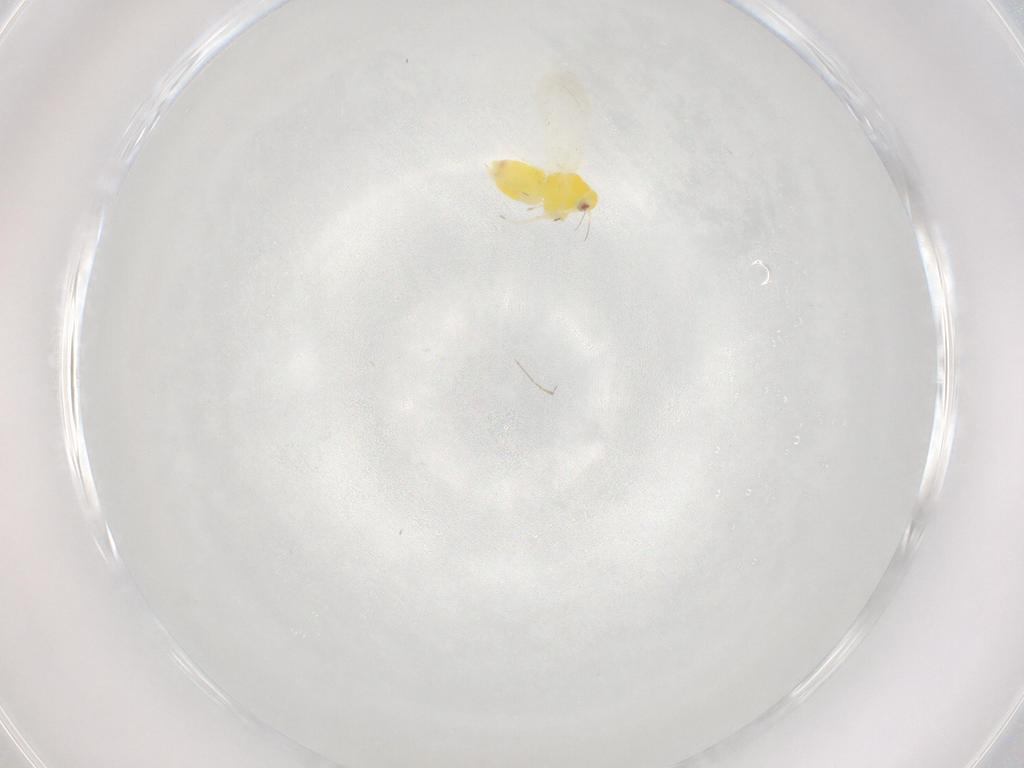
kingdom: Animalia
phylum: Arthropoda
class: Insecta
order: Hemiptera
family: Aleyrodidae
